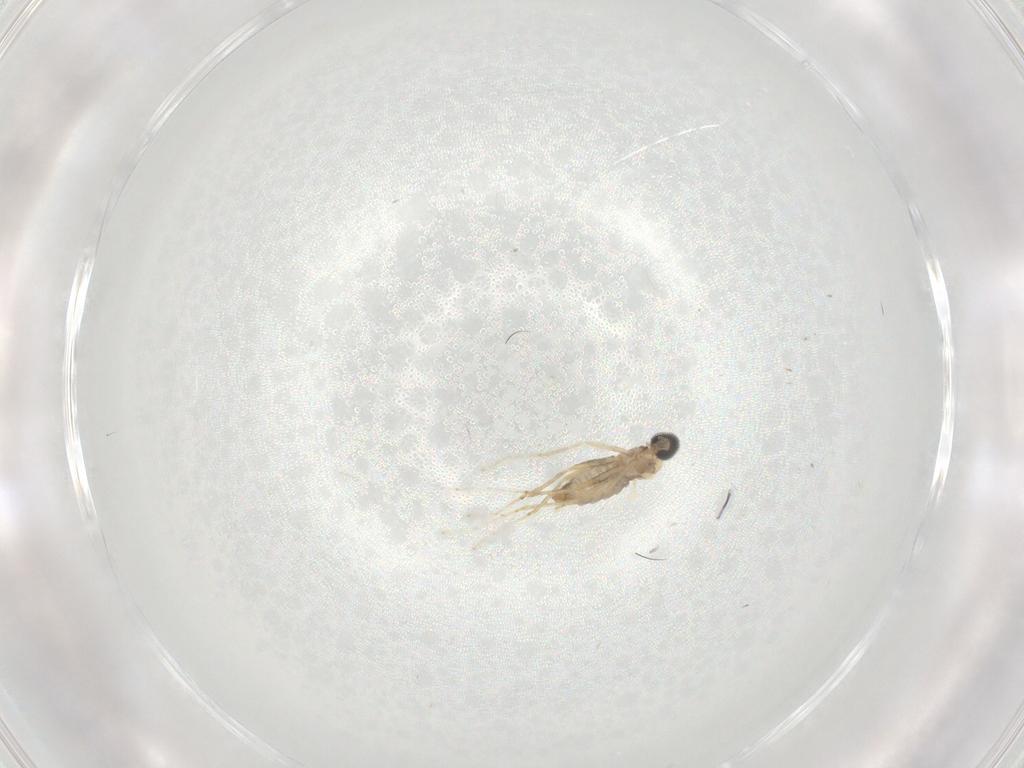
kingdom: Animalia
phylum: Arthropoda
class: Insecta
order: Diptera
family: Cecidomyiidae
